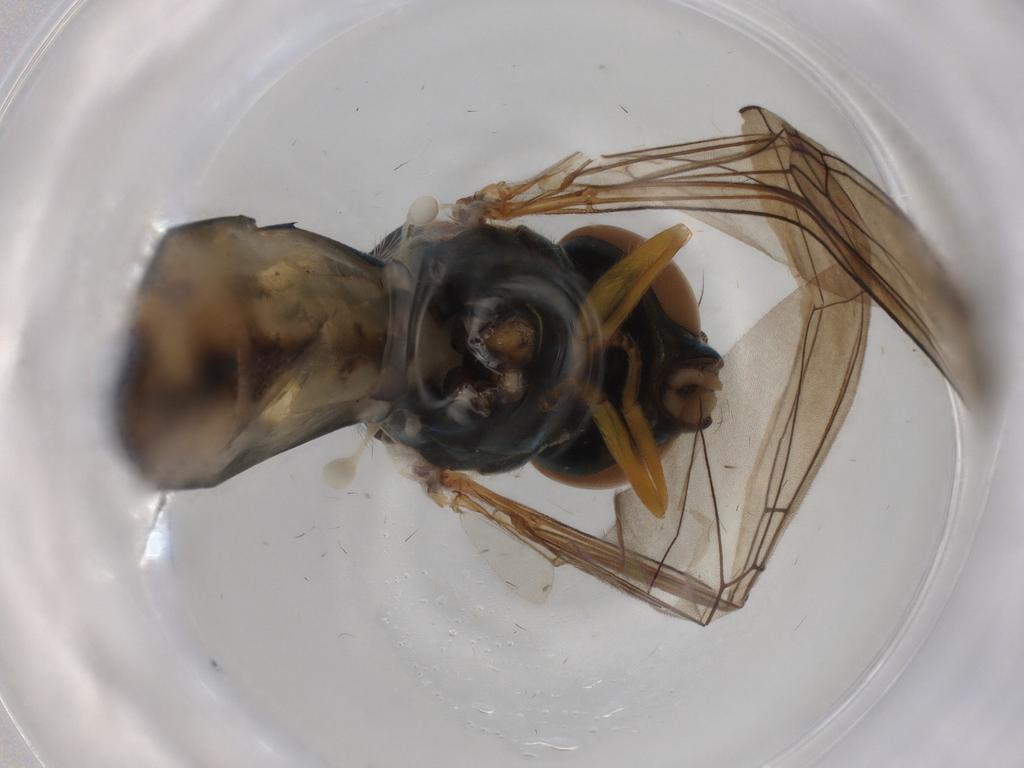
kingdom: Animalia
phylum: Arthropoda
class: Insecta
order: Diptera
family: Syrphidae
